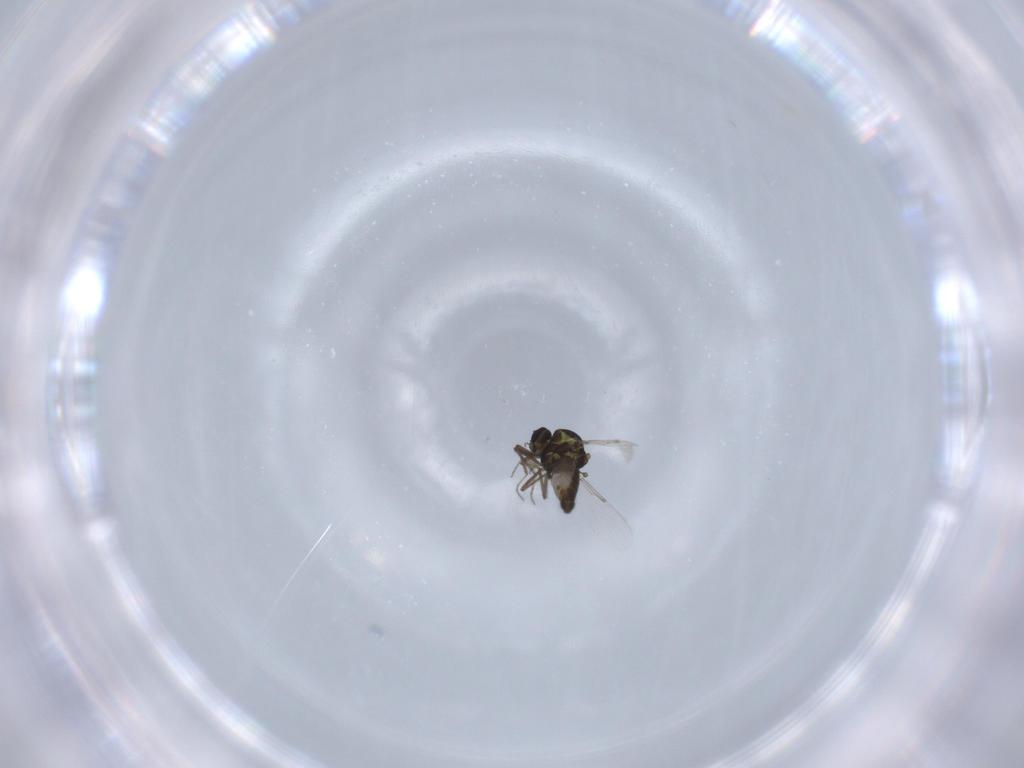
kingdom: Animalia
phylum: Arthropoda
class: Insecta
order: Diptera
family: Ceratopogonidae
